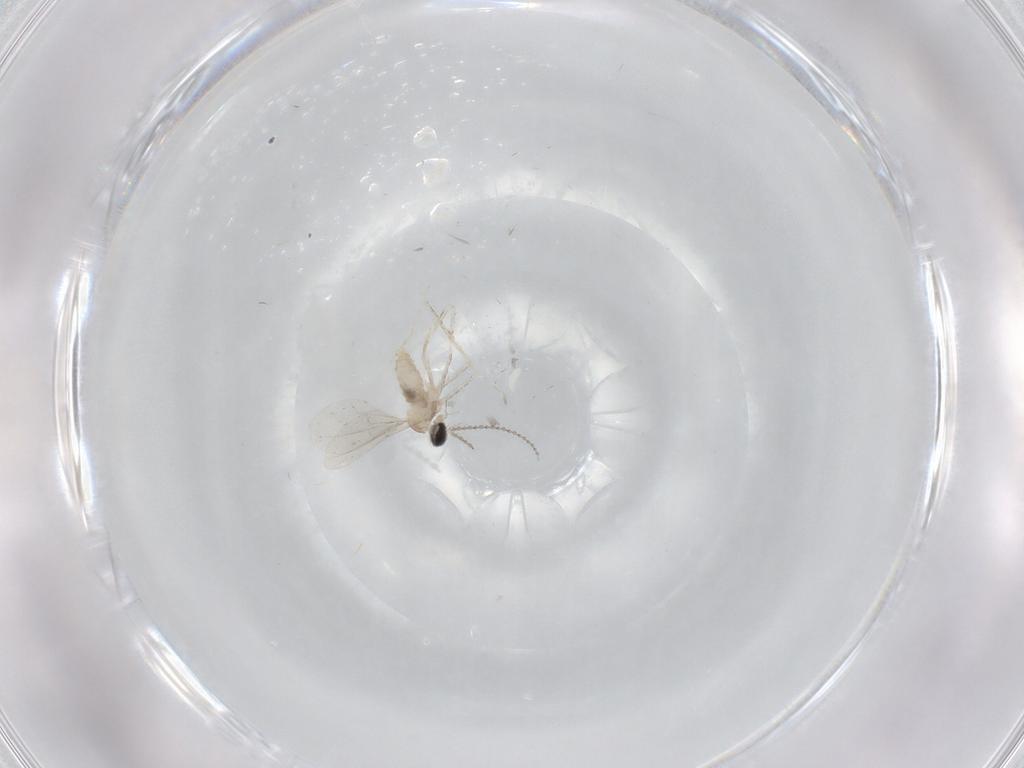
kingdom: Animalia
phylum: Arthropoda
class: Insecta
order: Diptera
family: Cecidomyiidae
